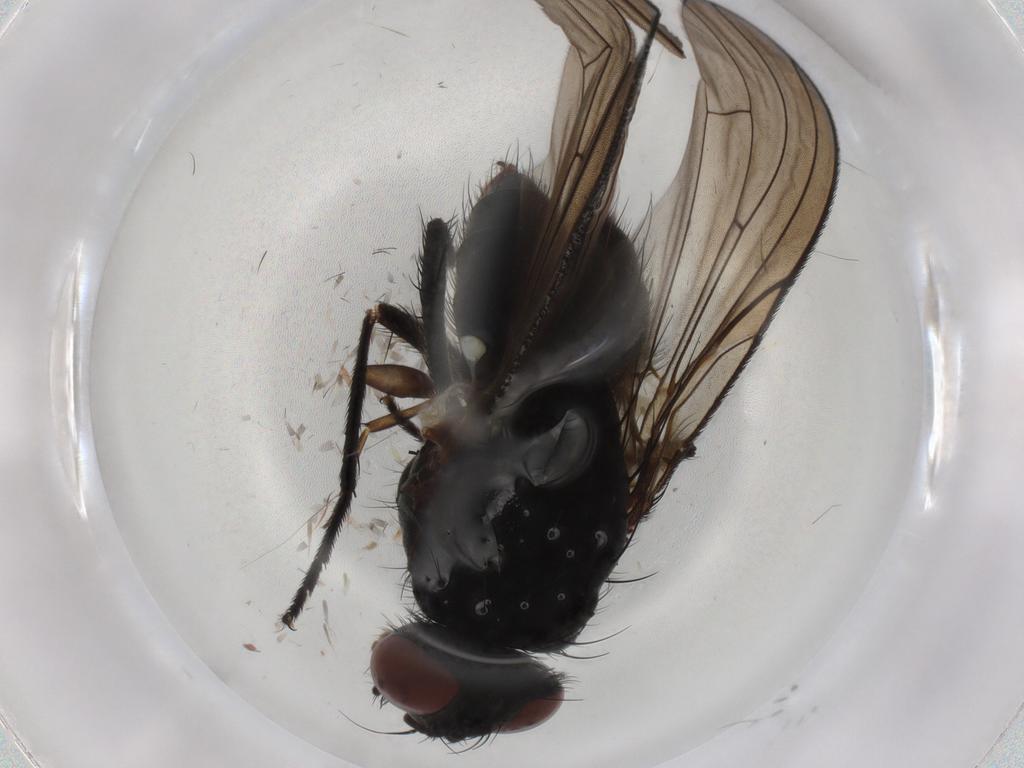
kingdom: Animalia
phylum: Arthropoda
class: Insecta
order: Diptera
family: Anthomyiidae
